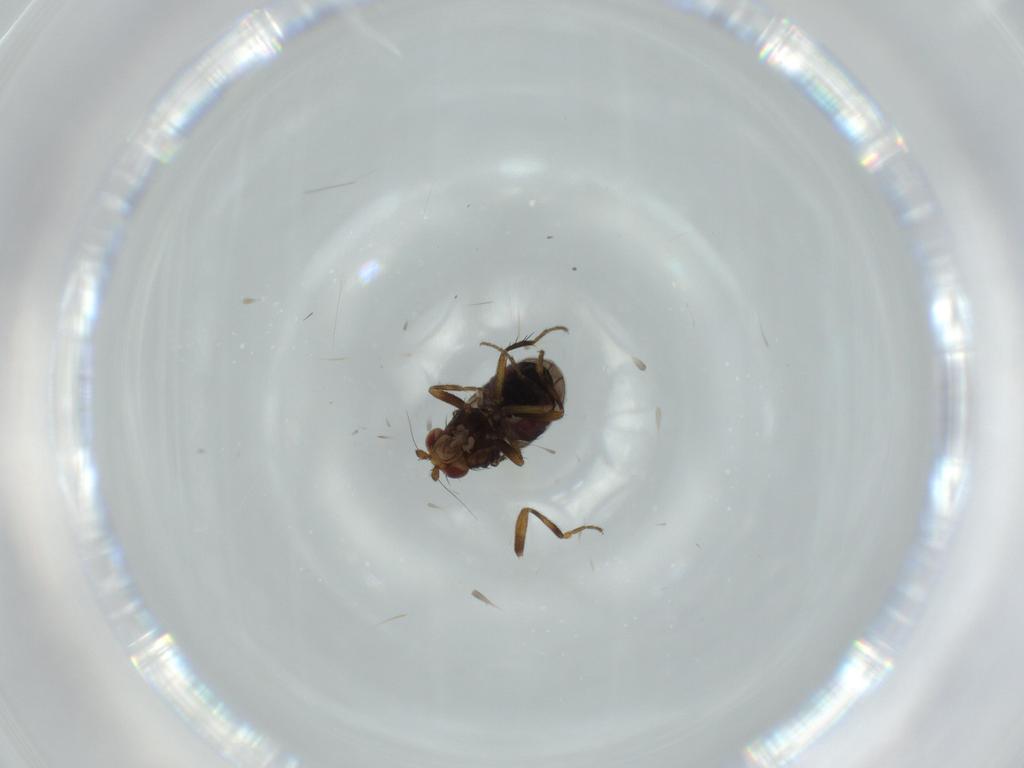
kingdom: Animalia
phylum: Arthropoda
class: Insecta
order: Diptera
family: Sphaeroceridae
